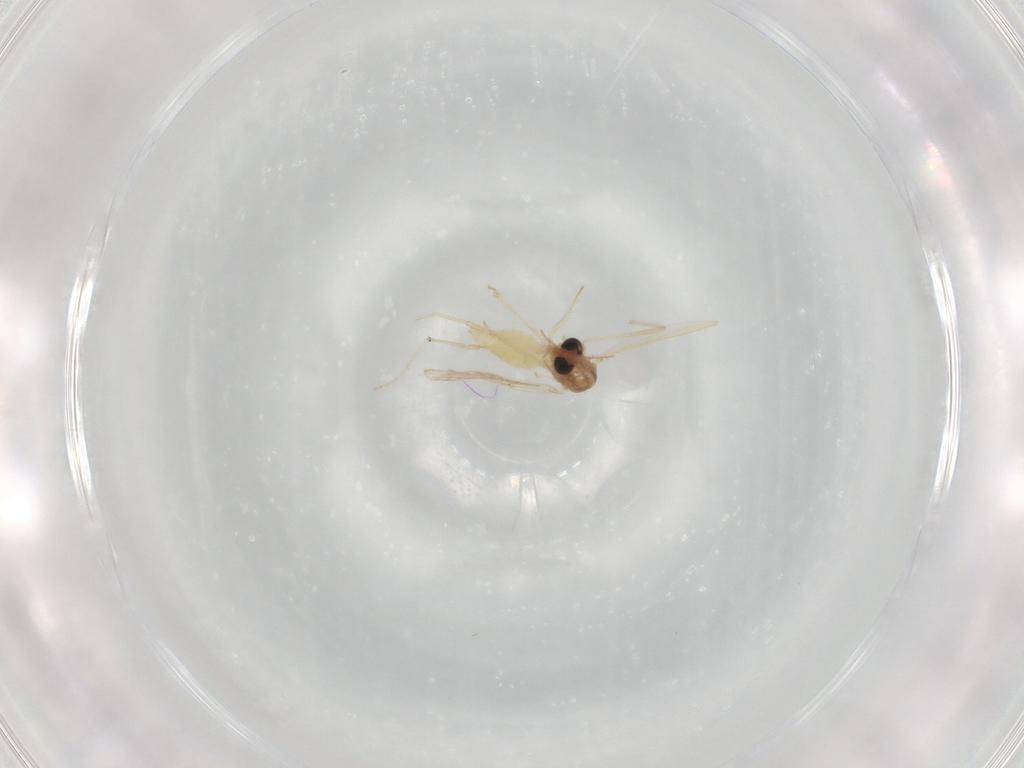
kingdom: Animalia
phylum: Arthropoda
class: Insecta
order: Diptera
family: Chironomidae
